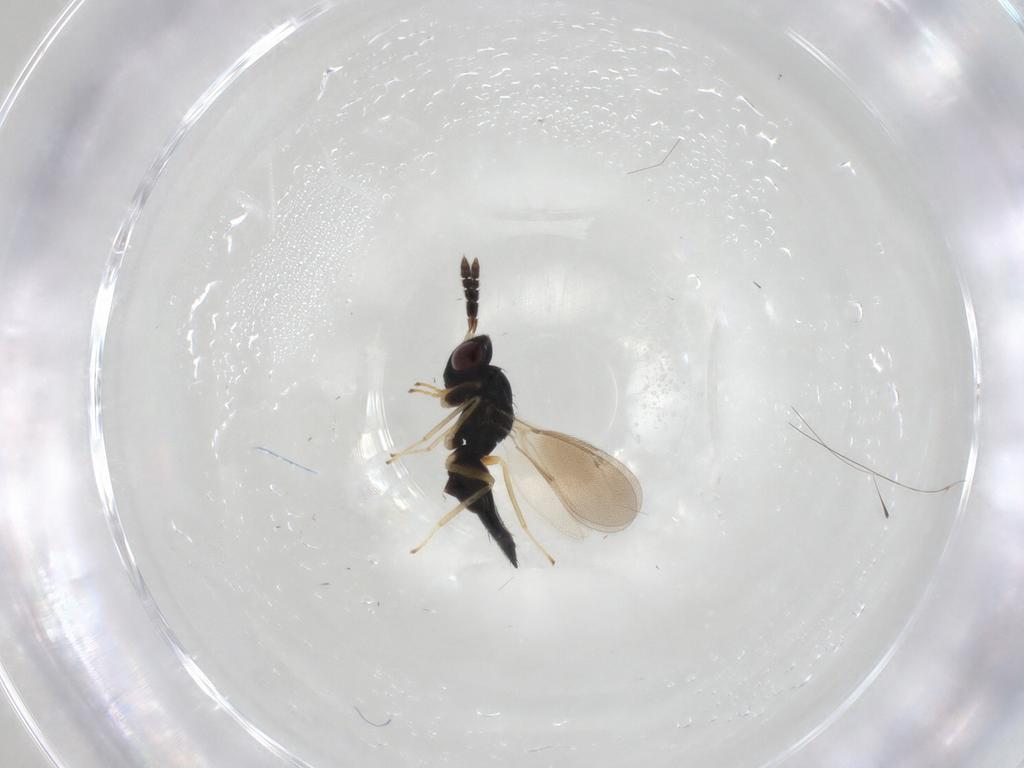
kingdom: Animalia
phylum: Arthropoda
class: Insecta
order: Hymenoptera
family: Eulophidae
